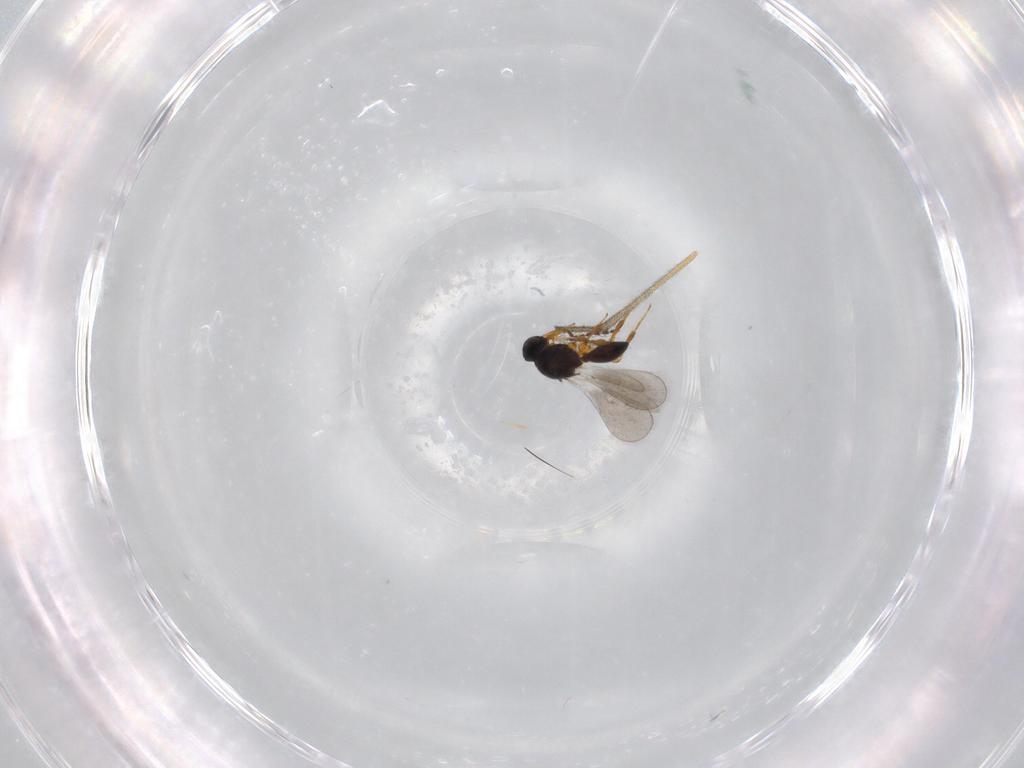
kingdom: Animalia
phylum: Arthropoda
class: Insecta
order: Hymenoptera
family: Platygastridae
